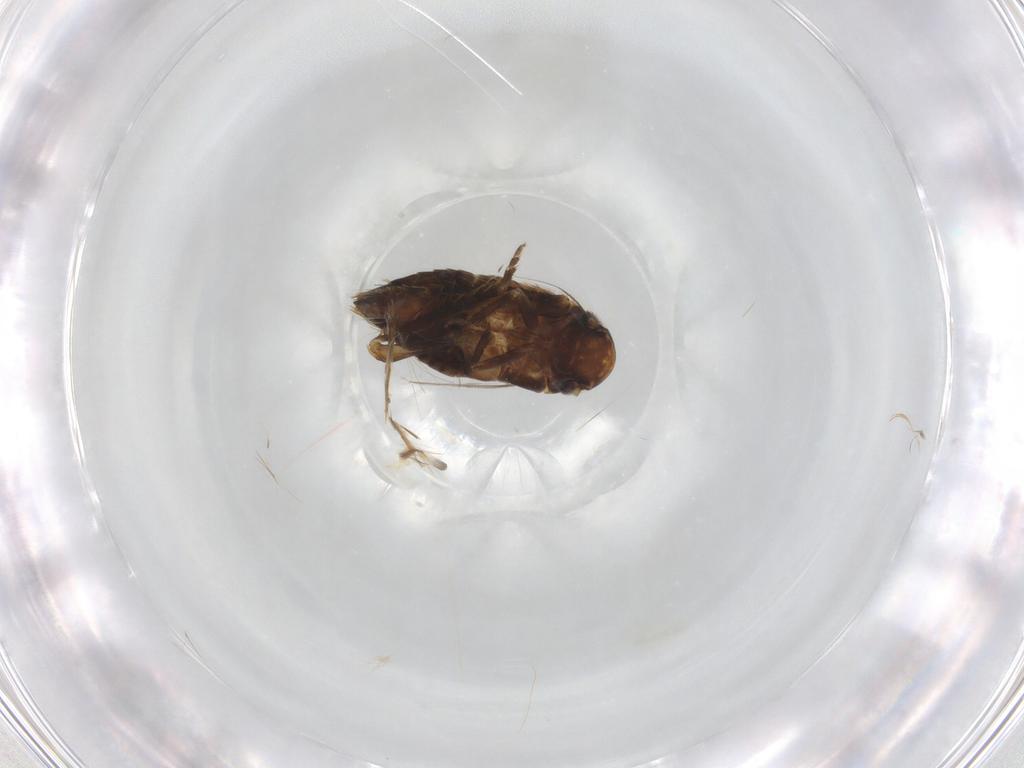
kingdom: Animalia
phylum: Arthropoda
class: Insecta
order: Hemiptera
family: Cicadellidae
